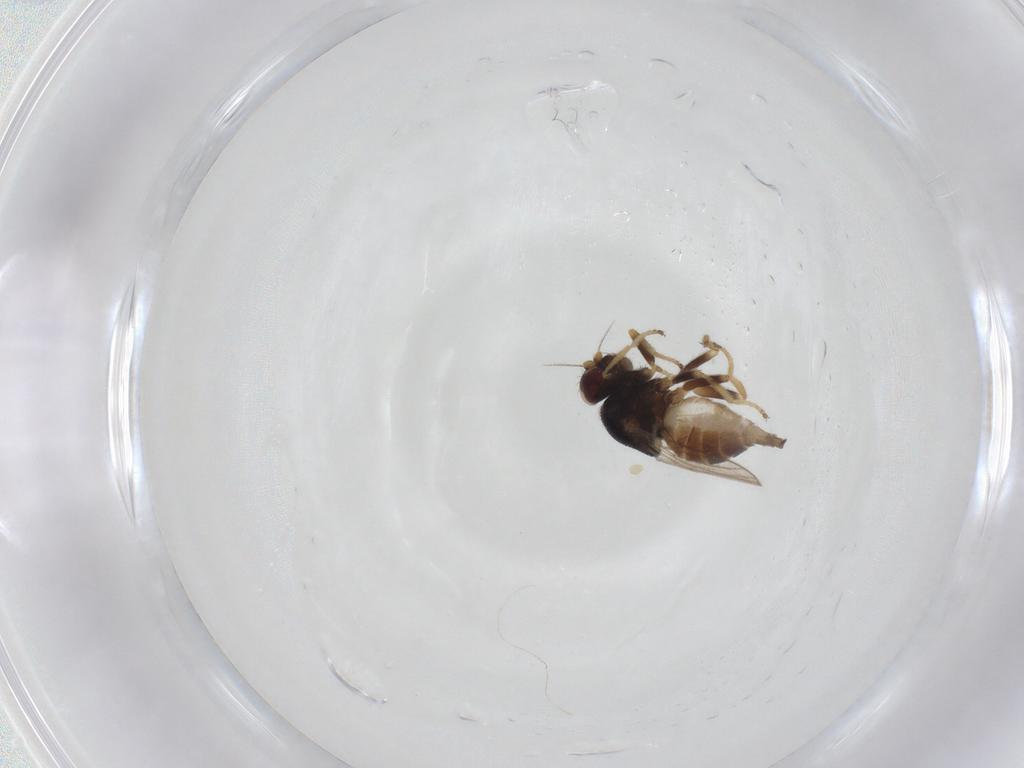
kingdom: Animalia
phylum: Arthropoda
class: Insecta
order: Diptera
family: Chloropidae
